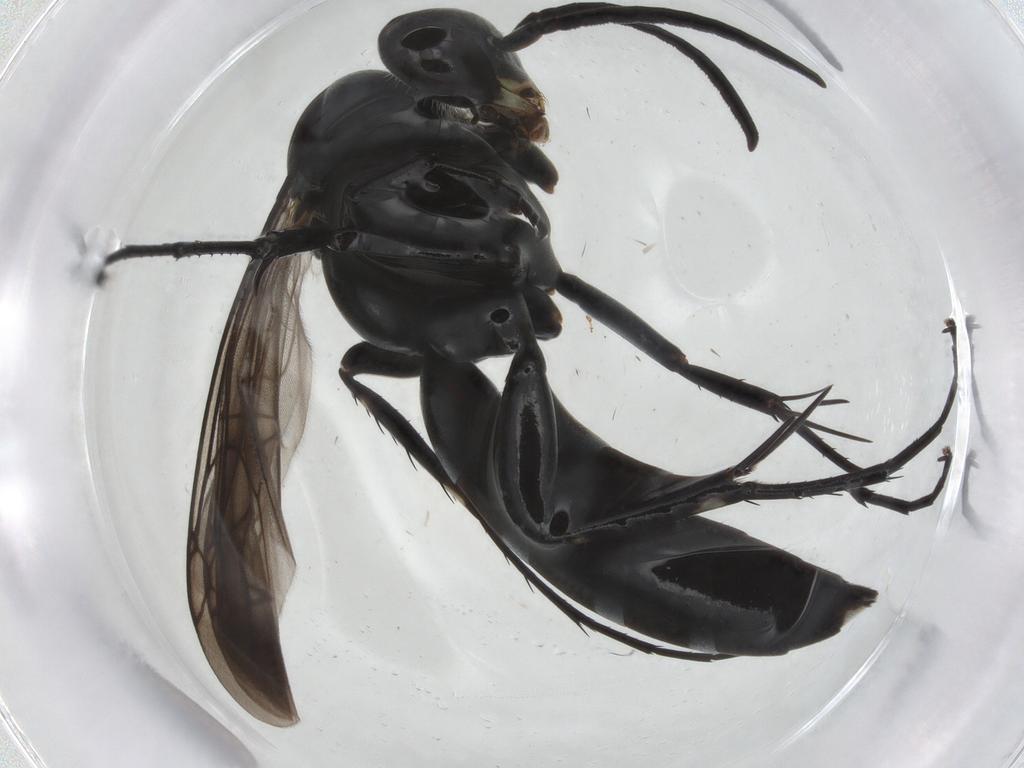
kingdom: Animalia
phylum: Arthropoda
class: Insecta
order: Hymenoptera
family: Pompilidae
